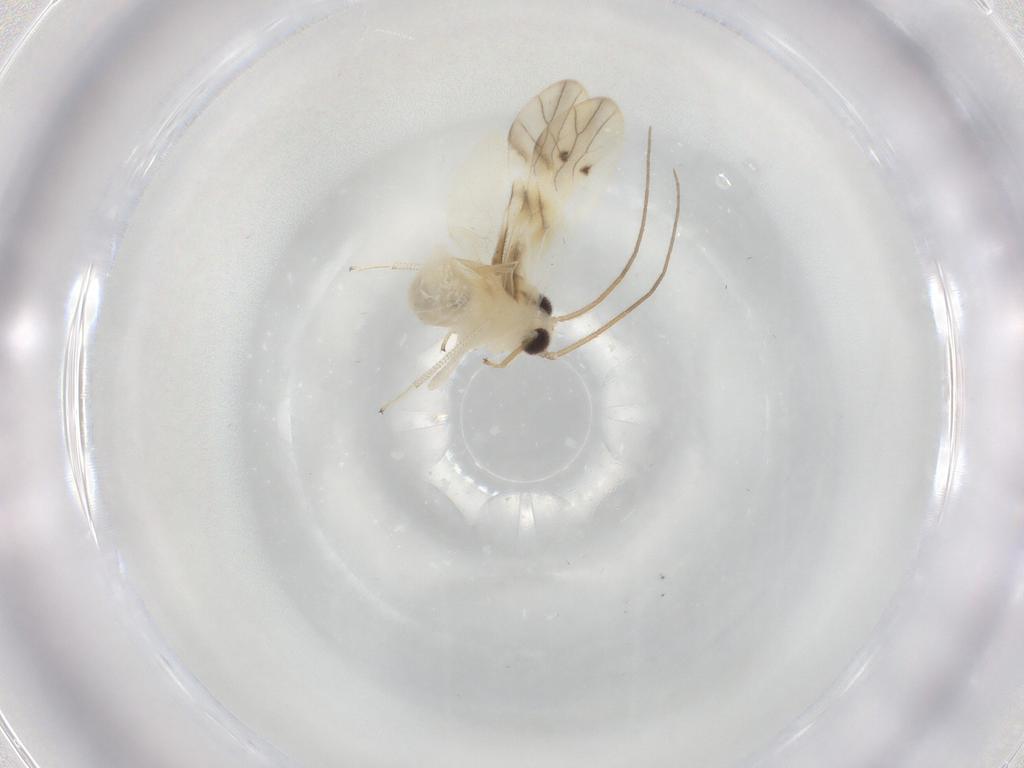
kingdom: Animalia
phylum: Arthropoda
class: Insecta
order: Psocodea
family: Caeciliusidae
